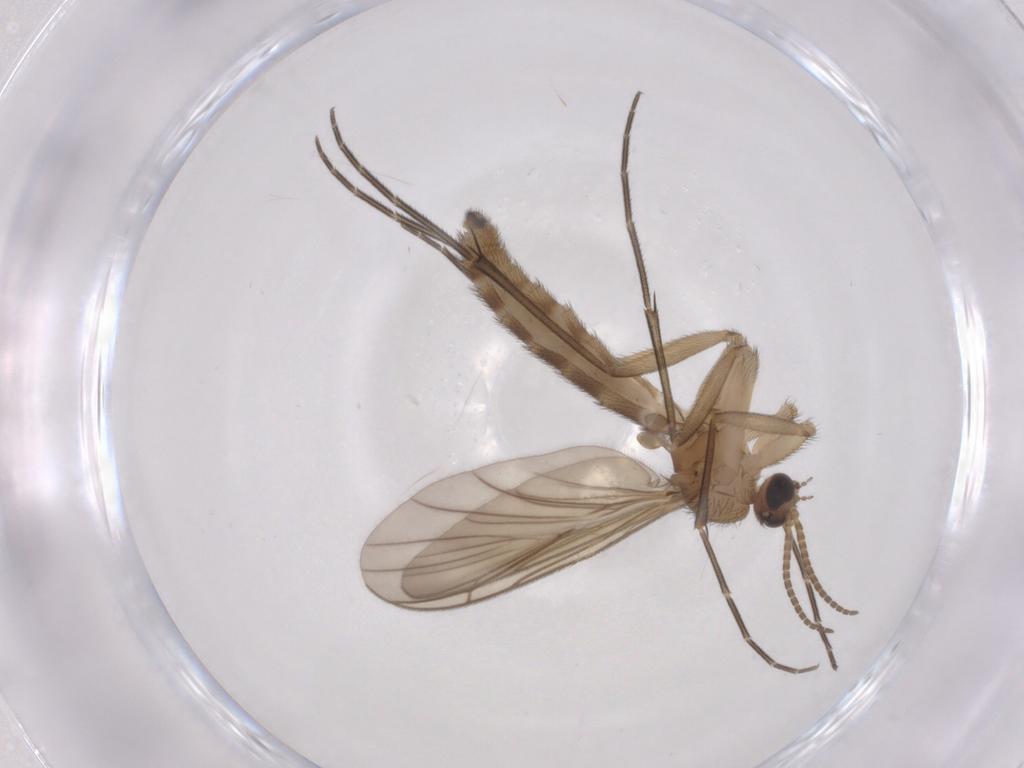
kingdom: Animalia
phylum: Arthropoda
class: Insecta
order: Diptera
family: Keroplatidae
